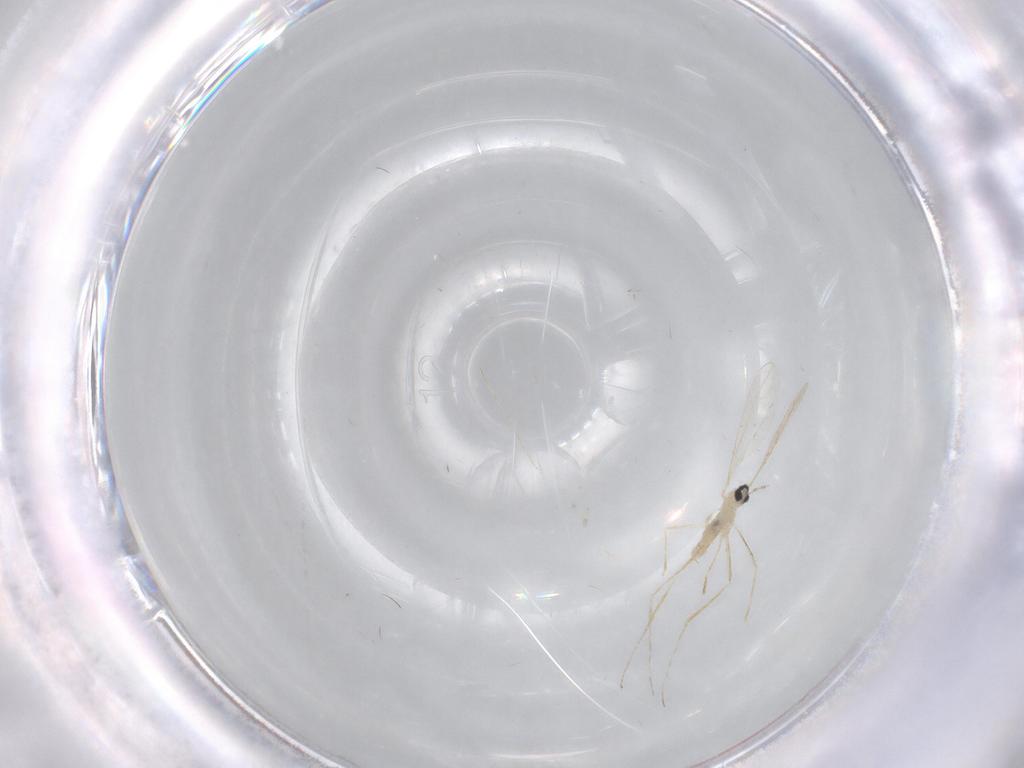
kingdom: Animalia
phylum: Arthropoda
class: Insecta
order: Diptera
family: Cecidomyiidae
